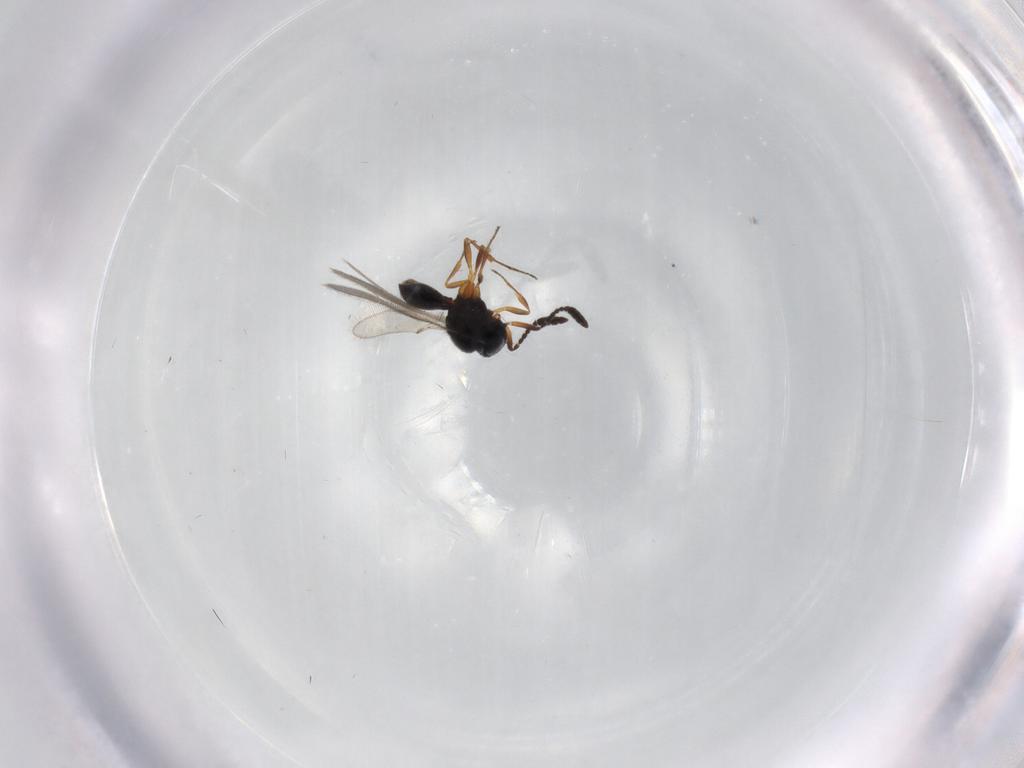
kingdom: Animalia
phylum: Arthropoda
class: Insecta
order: Hymenoptera
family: Scelionidae
